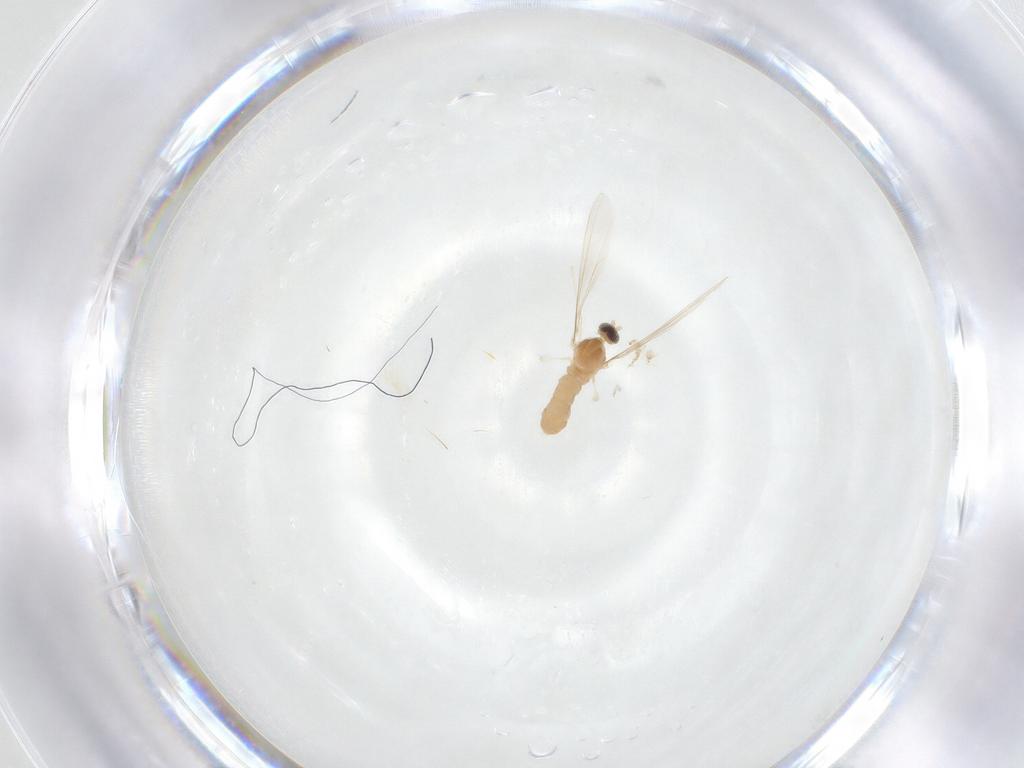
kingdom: Animalia
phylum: Arthropoda
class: Insecta
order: Diptera
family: Cecidomyiidae
